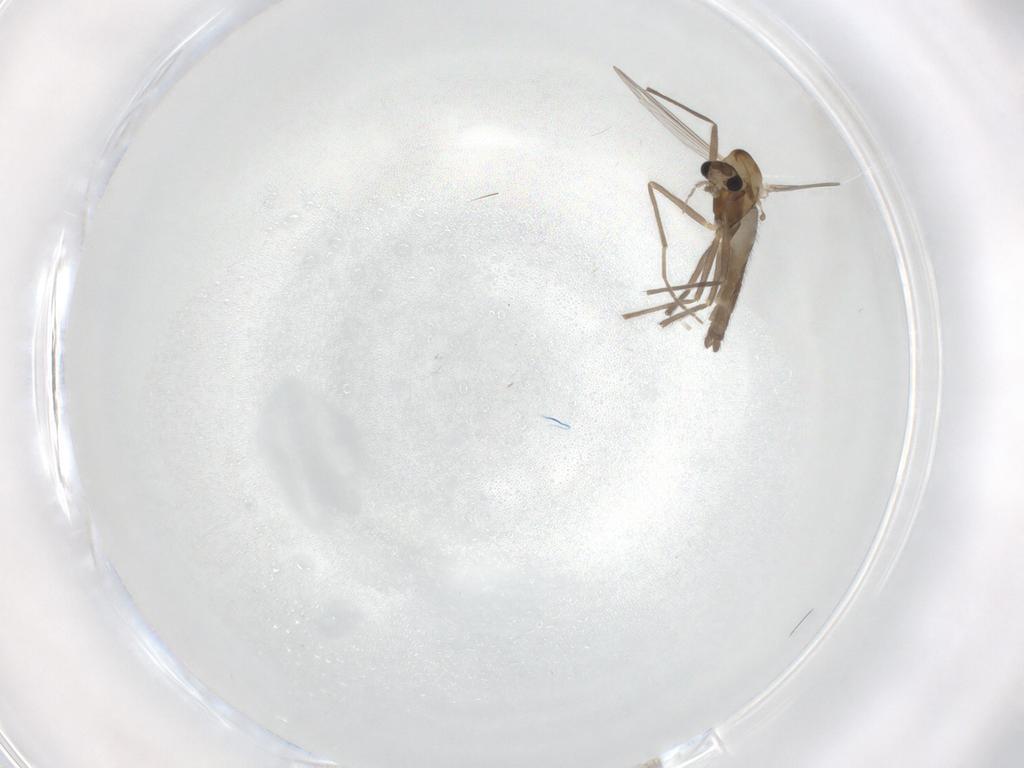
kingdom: Animalia
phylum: Arthropoda
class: Insecta
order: Diptera
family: Chironomidae
